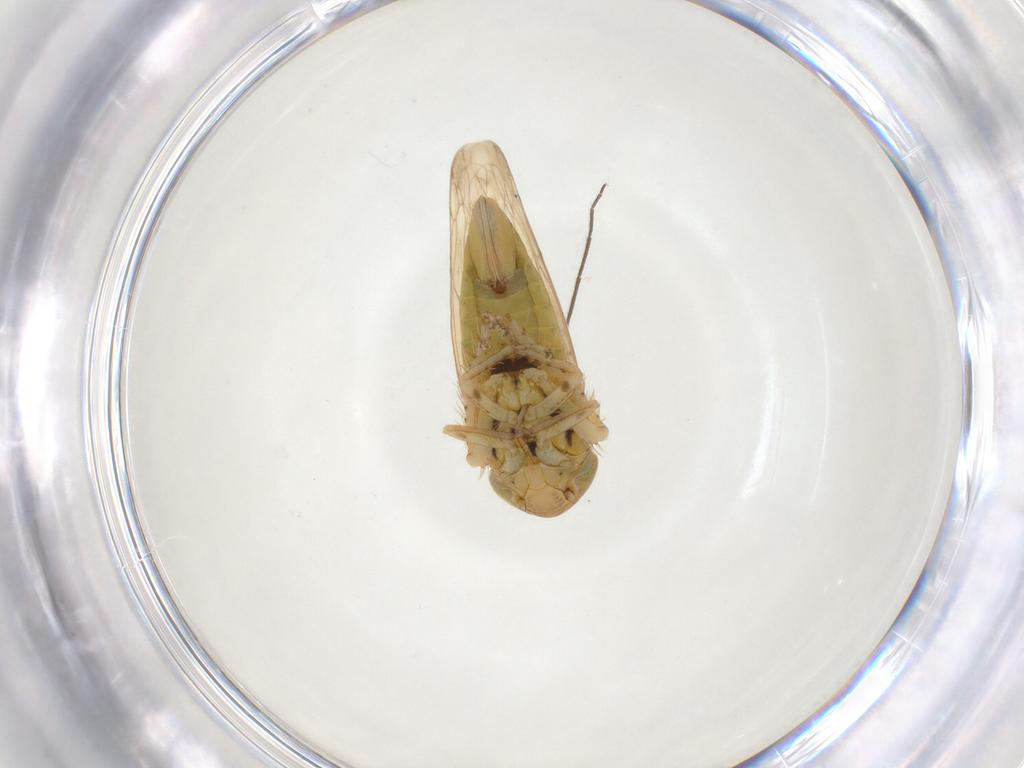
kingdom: Animalia
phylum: Arthropoda
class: Insecta
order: Hemiptera
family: Cicadellidae
